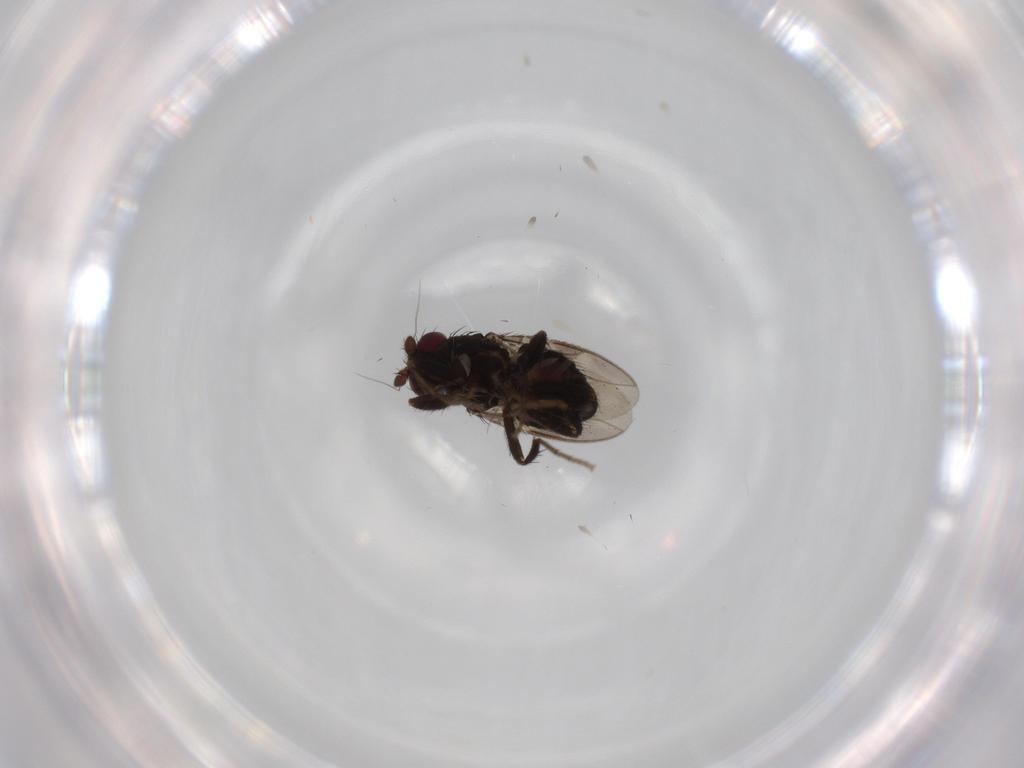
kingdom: Animalia
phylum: Arthropoda
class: Insecta
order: Diptera
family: Sphaeroceridae
